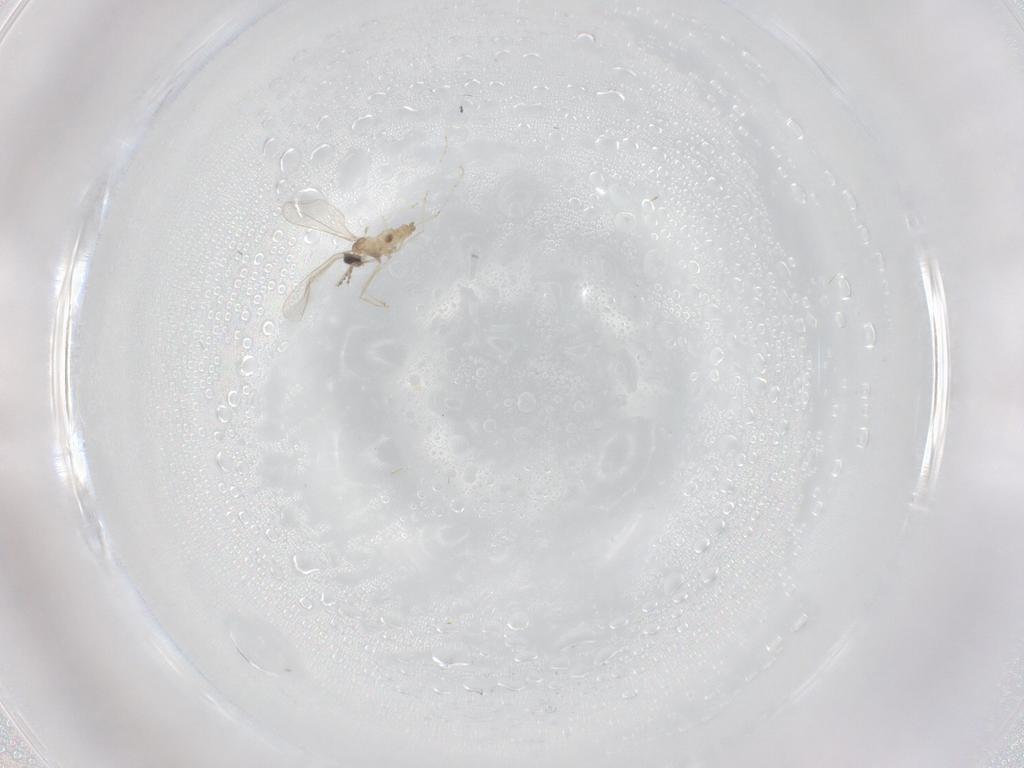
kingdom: Animalia
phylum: Arthropoda
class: Insecta
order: Diptera
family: Cecidomyiidae
